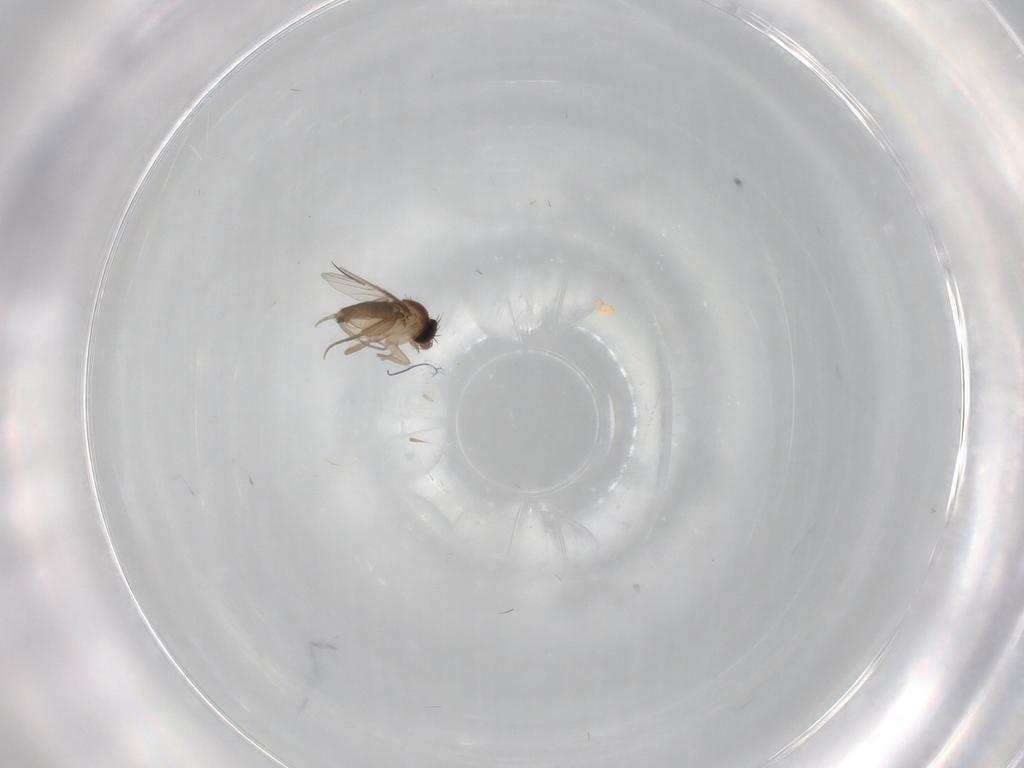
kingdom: Animalia
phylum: Arthropoda
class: Insecta
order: Diptera
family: Phoridae
